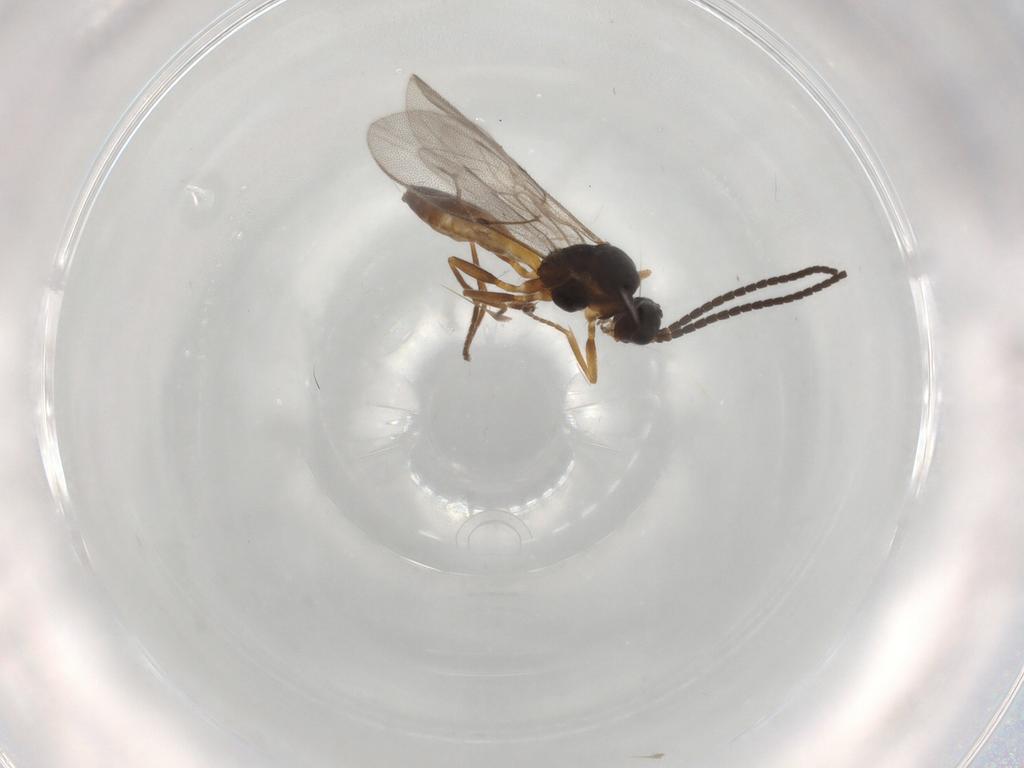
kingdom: Animalia
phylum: Arthropoda
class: Insecta
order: Hymenoptera
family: Braconidae
